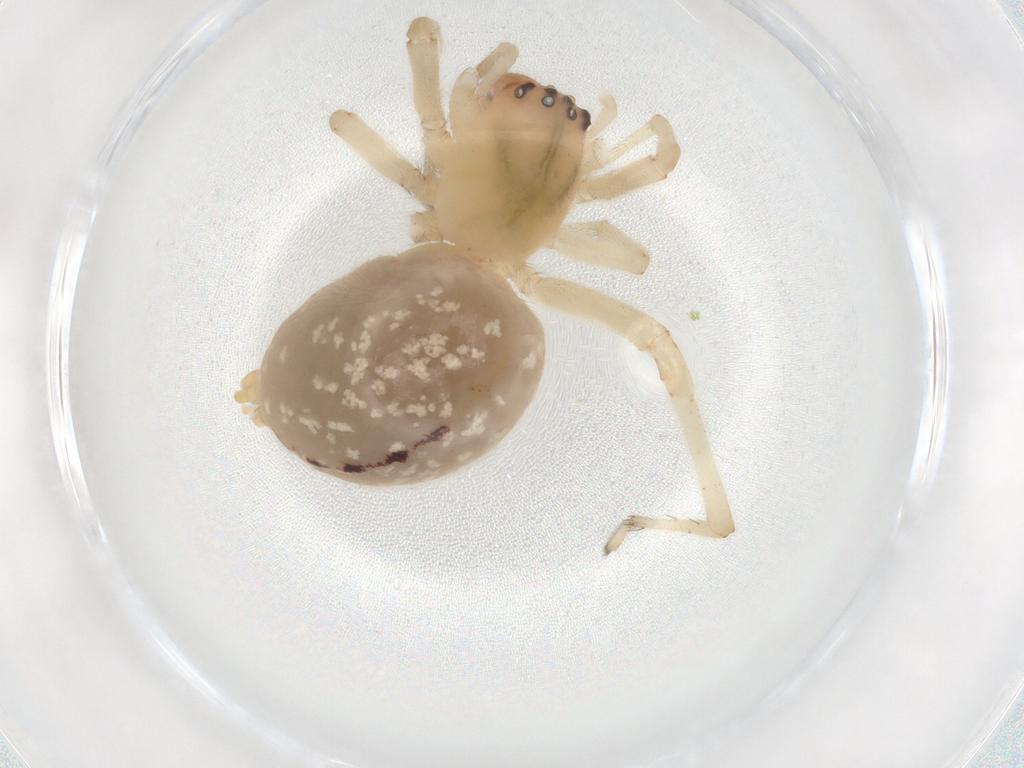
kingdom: Animalia
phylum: Arthropoda
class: Arachnida
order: Araneae
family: Cheiracanthiidae
